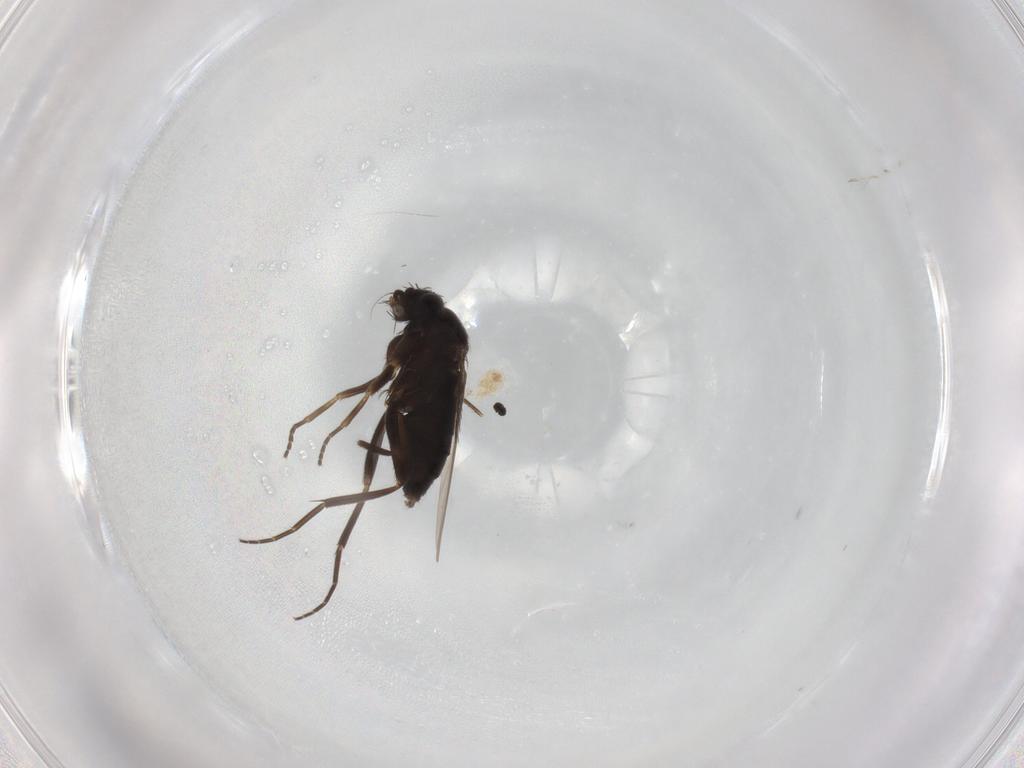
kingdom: Animalia
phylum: Arthropoda
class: Insecta
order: Diptera
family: Phoridae
